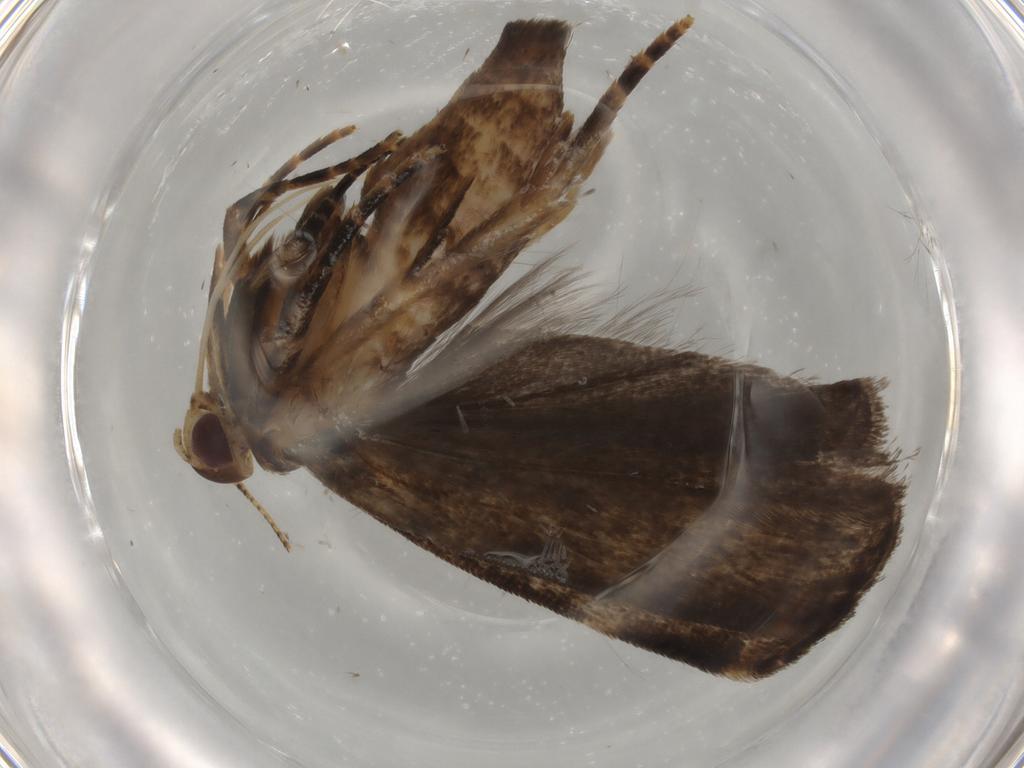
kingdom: Animalia
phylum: Arthropoda
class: Insecta
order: Lepidoptera
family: Gelechiidae
